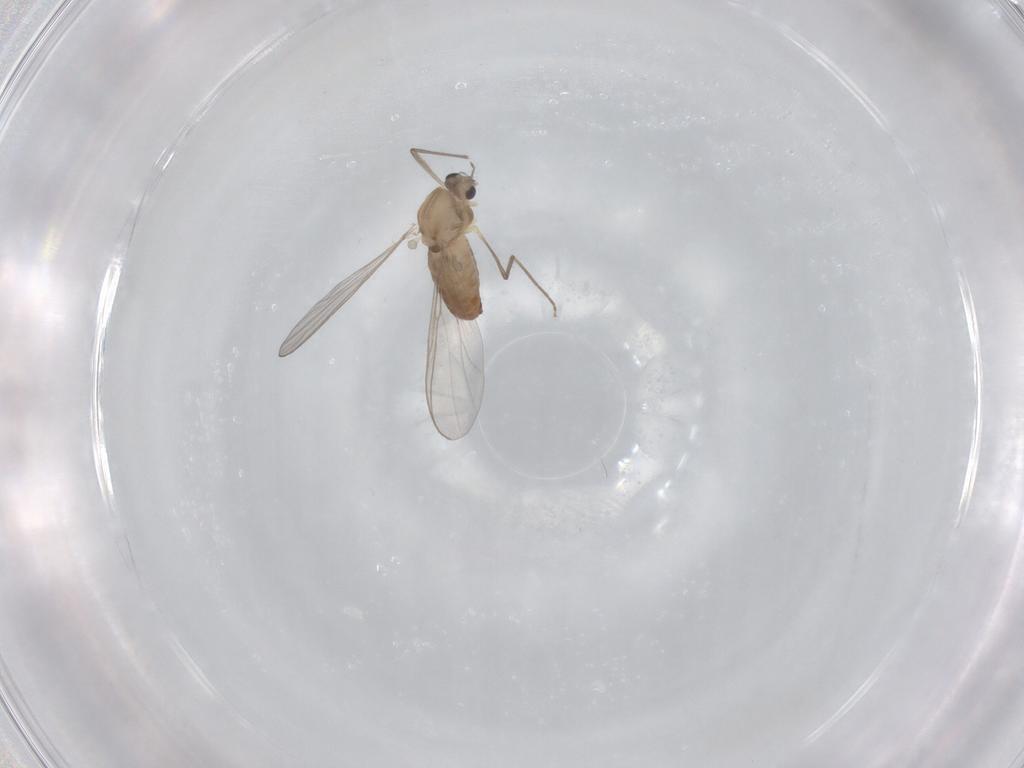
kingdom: Animalia
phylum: Arthropoda
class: Insecta
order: Diptera
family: Chironomidae
